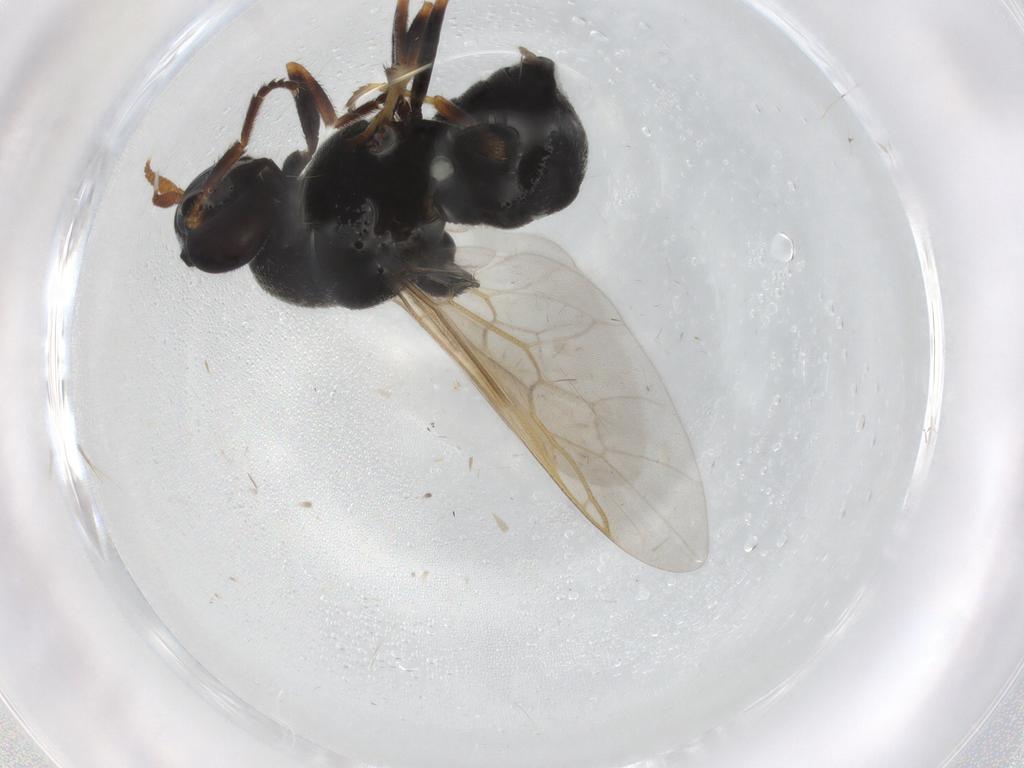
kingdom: Animalia
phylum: Arthropoda
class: Insecta
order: Diptera
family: Stratiomyidae
